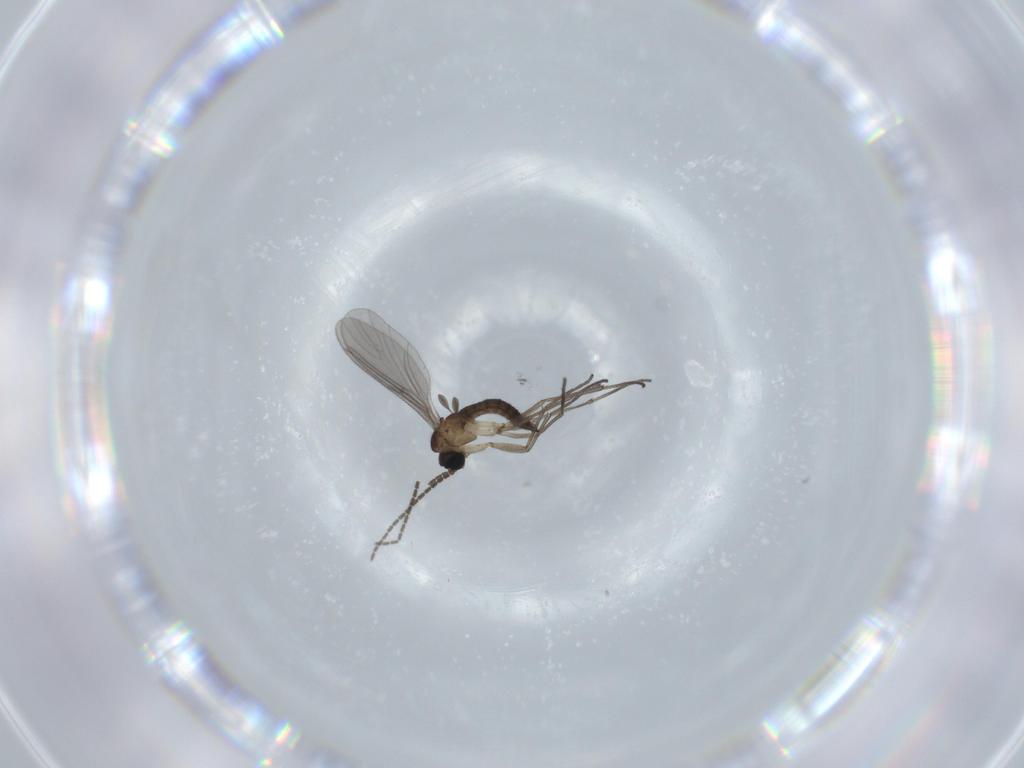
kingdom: Animalia
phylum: Arthropoda
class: Insecta
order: Diptera
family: Sciaridae
